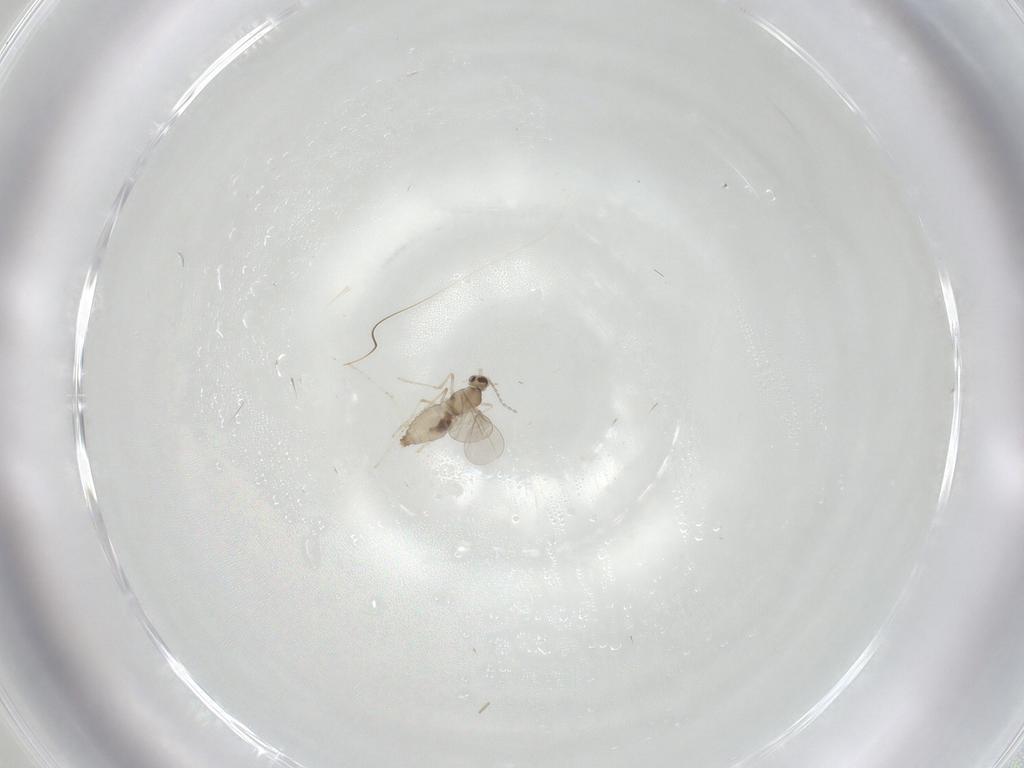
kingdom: Animalia
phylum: Arthropoda
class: Insecta
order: Diptera
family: Cecidomyiidae
